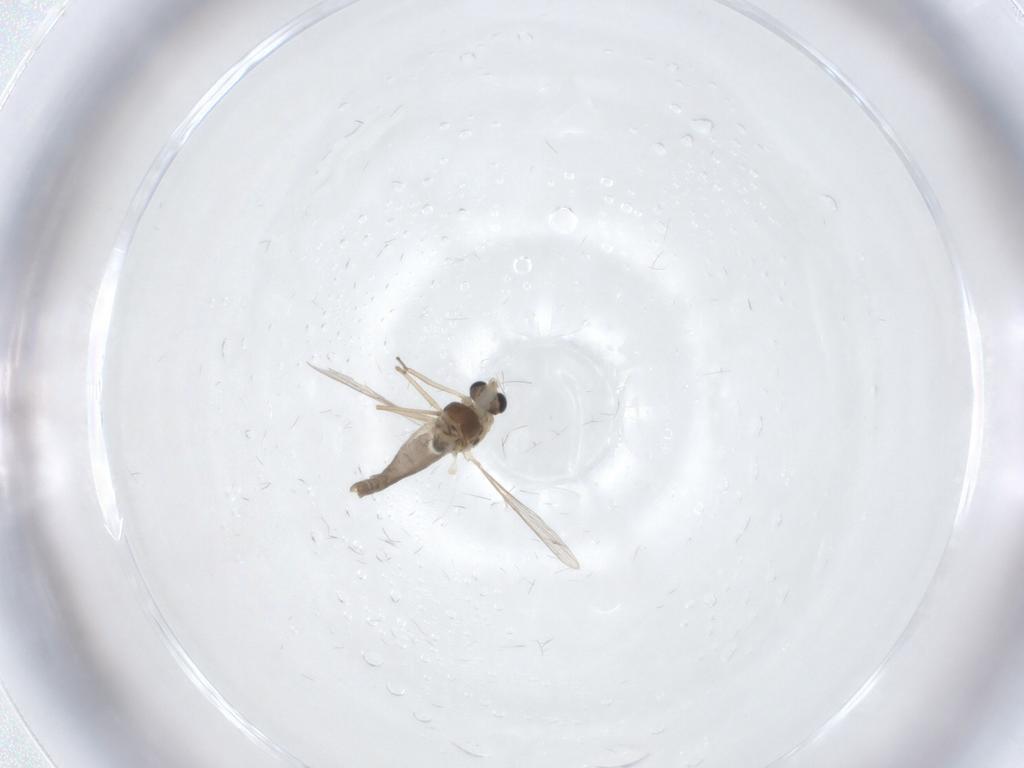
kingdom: Animalia
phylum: Arthropoda
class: Insecta
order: Diptera
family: Chironomidae
